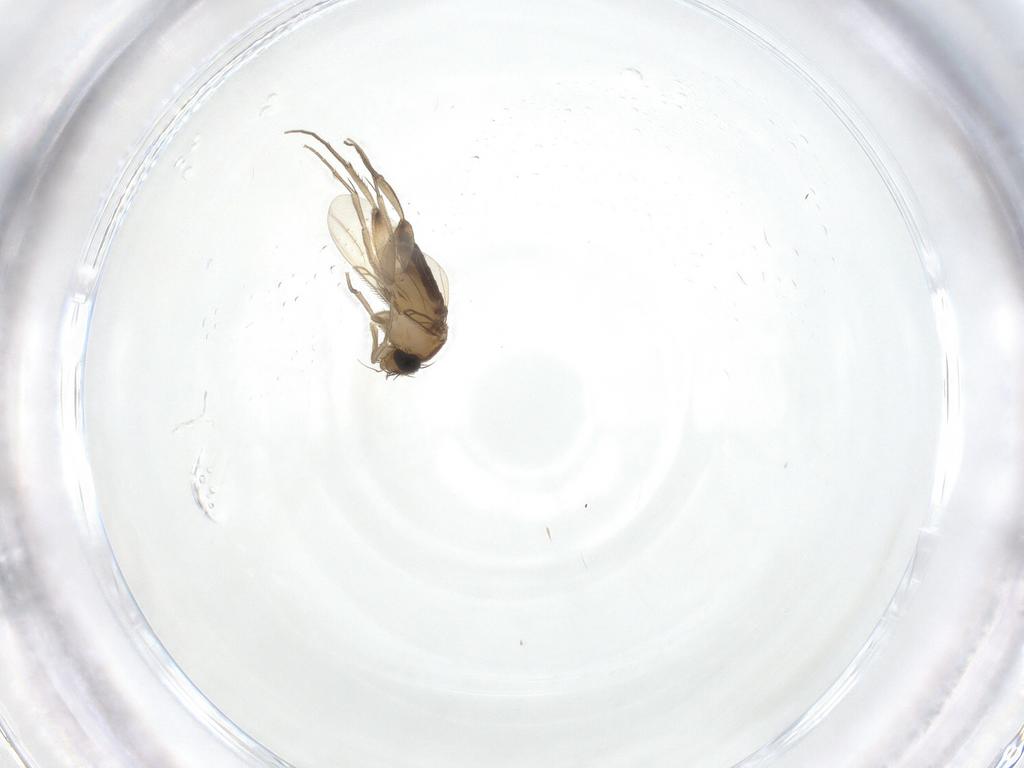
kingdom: Animalia
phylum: Arthropoda
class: Insecta
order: Diptera
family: Phoridae
